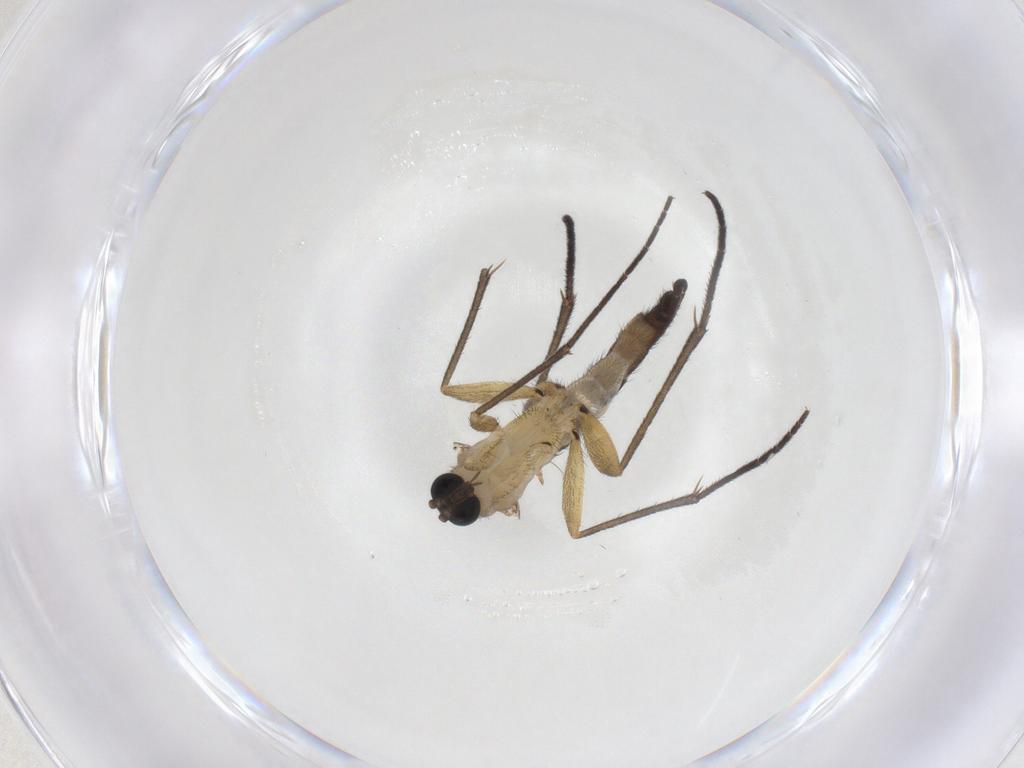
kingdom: Animalia
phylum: Arthropoda
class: Insecta
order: Diptera
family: Sciaridae
